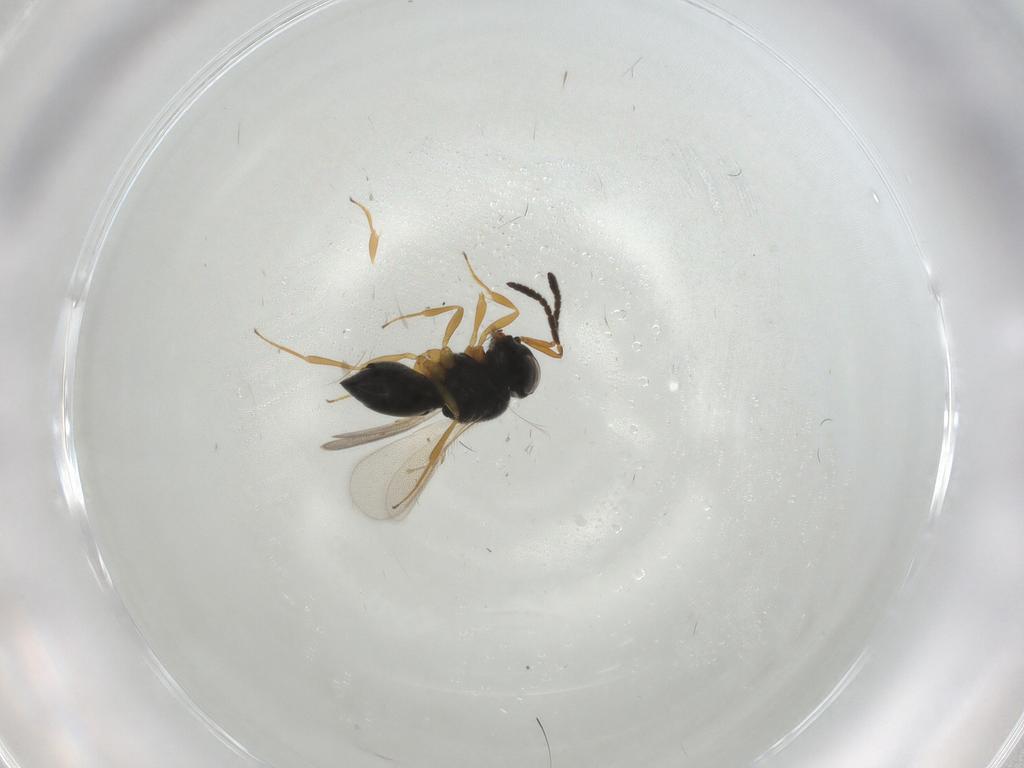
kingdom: Animalia
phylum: Arthropoda
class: Insecta
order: Hymenoptera
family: Scelionidae
